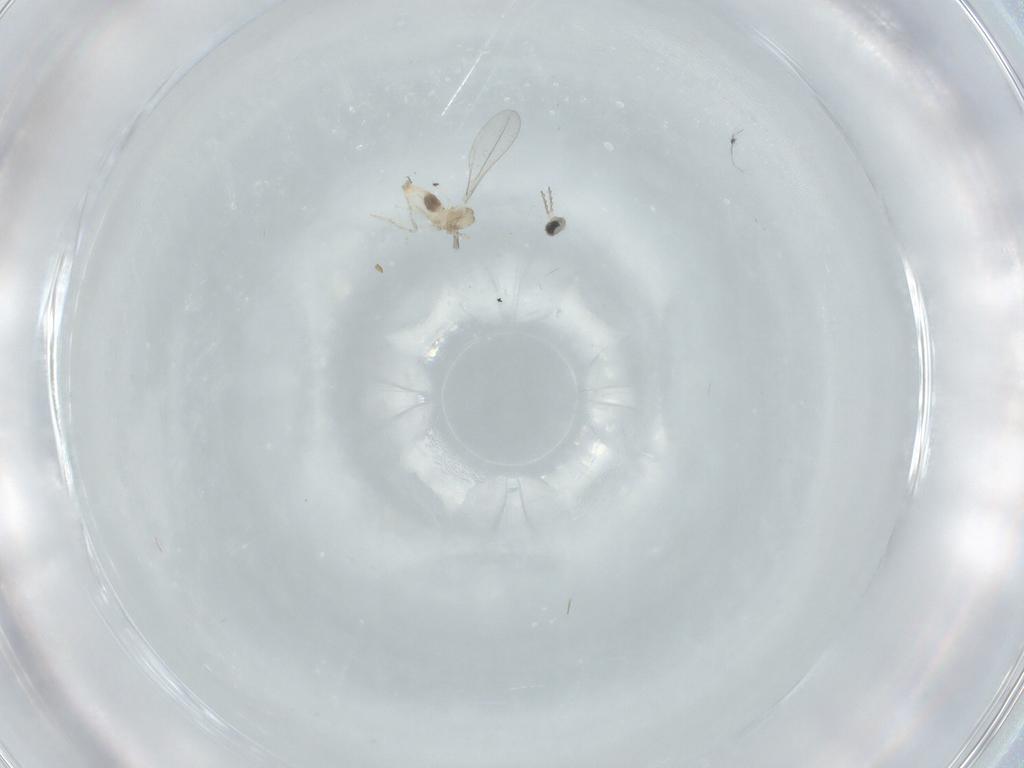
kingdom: Animalia
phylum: Arthropoda
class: Insecta
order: Diptera
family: Cecidomyiidae
